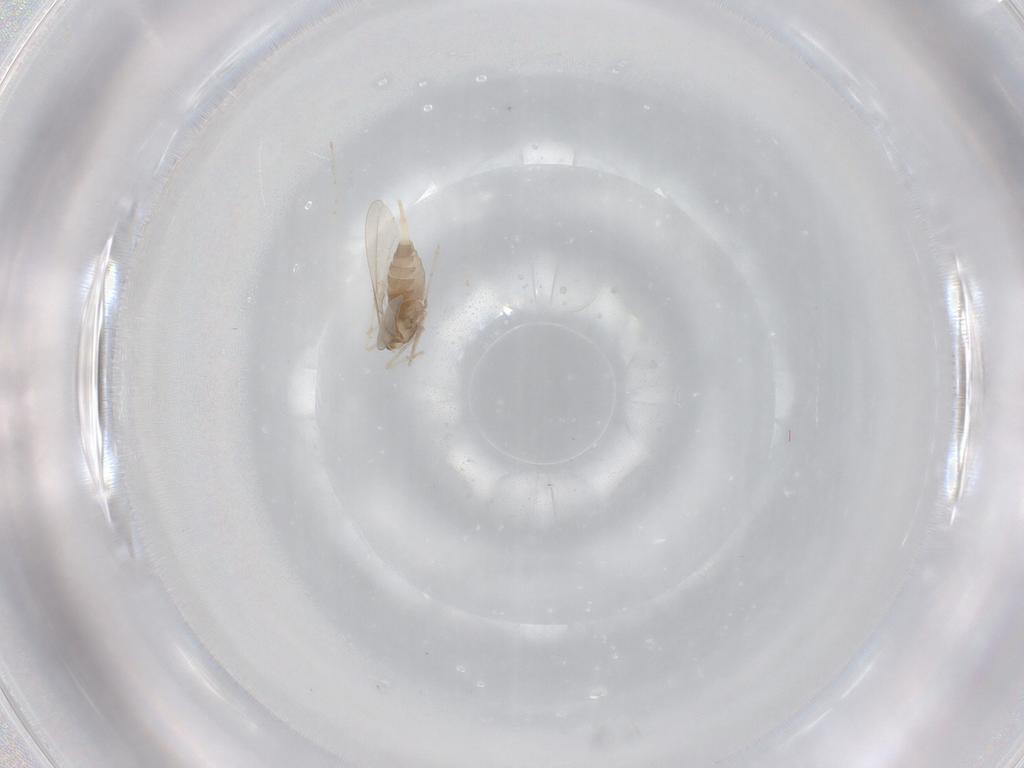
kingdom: Animalia
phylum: Arthropoda
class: Insecta
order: Diptera
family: Cecidomyiidae
